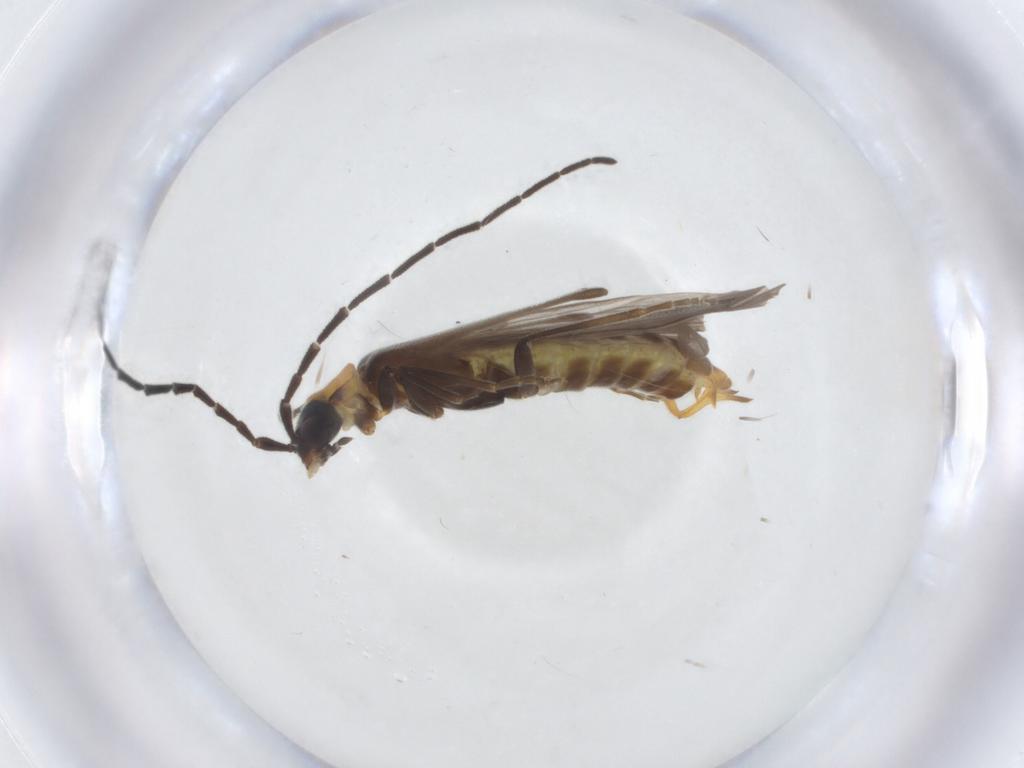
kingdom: Animalia
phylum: Arthropoda
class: Insecta
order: Coleoptera
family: Cantharidae
